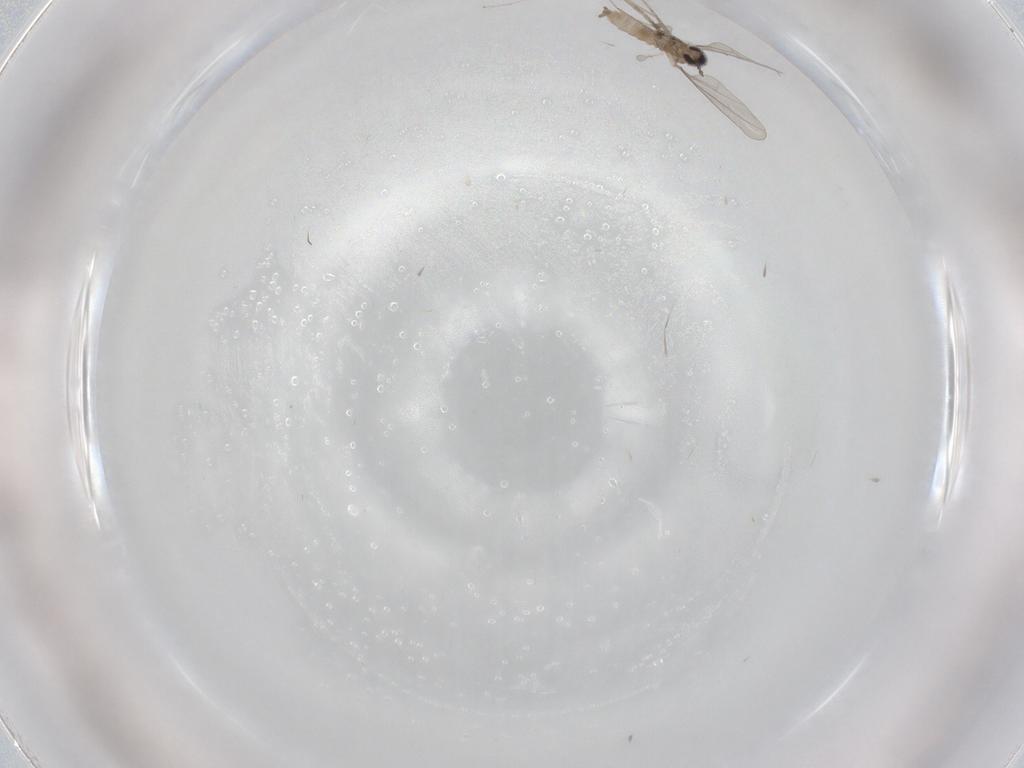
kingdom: Animalia
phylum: Arthropoda
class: Insecta
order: Diptera
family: Cecidomyiidae
